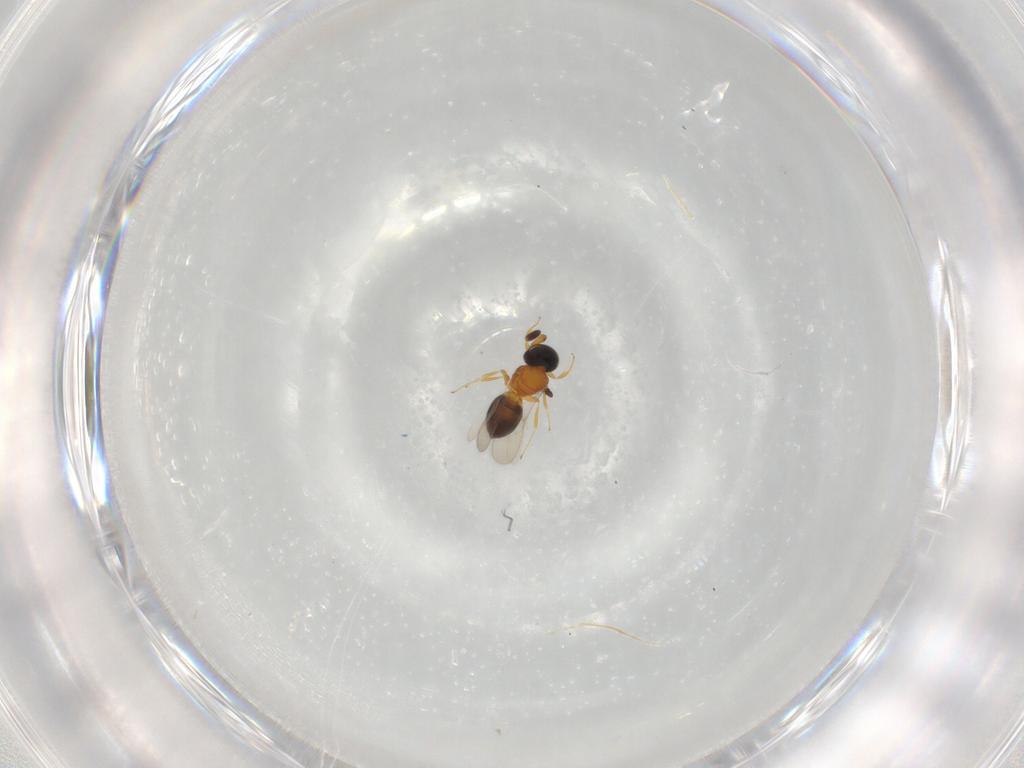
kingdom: Animalia
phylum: Arthropoda
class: Insecta
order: Hymenoptera
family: Scelionidae
